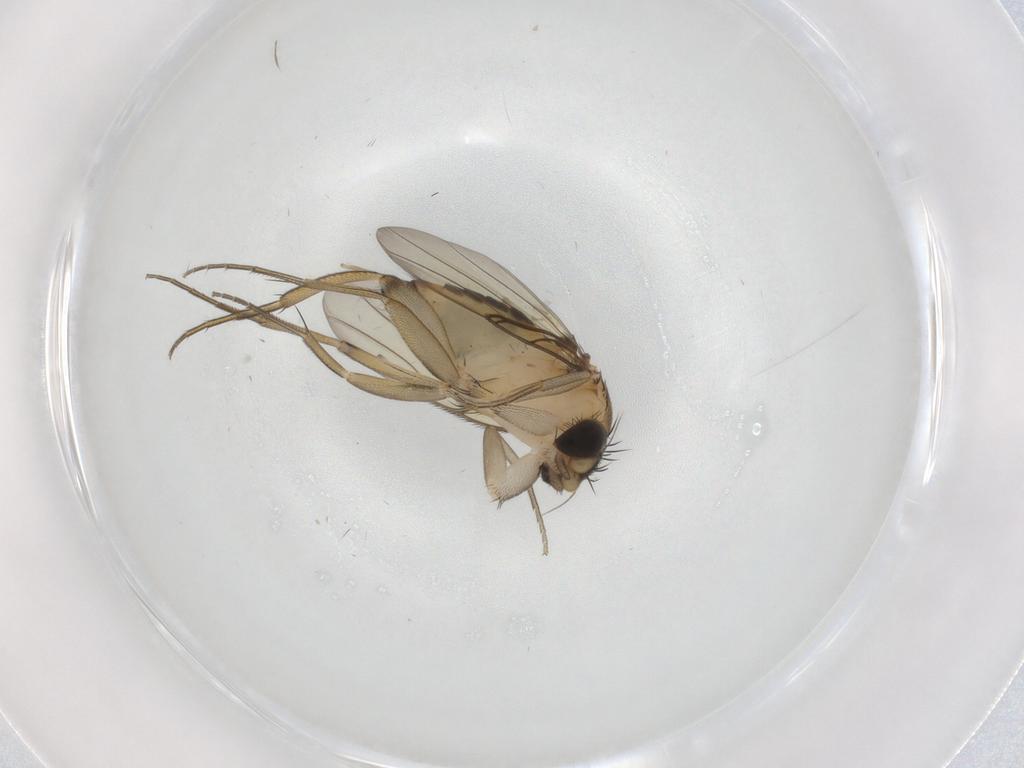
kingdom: Animalia
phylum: Arthropoda
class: Insecta
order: Diptera
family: Phoridae
